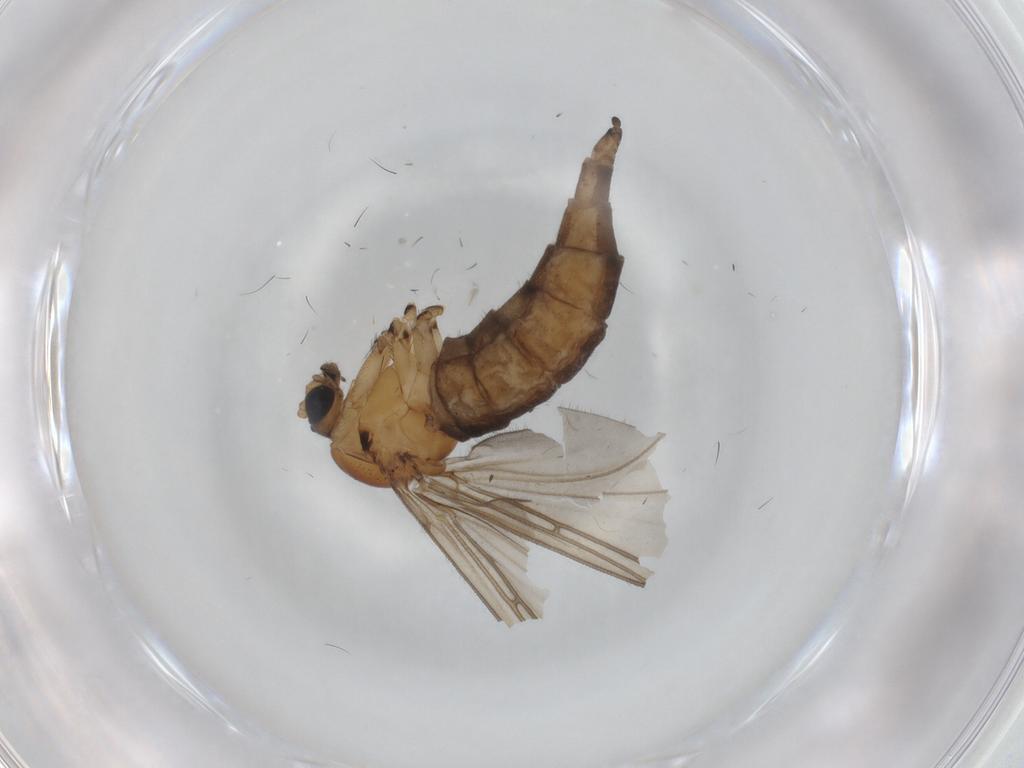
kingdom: Animalia
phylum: Arthropoda
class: Insecta
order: Diptera
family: Sciaridae
